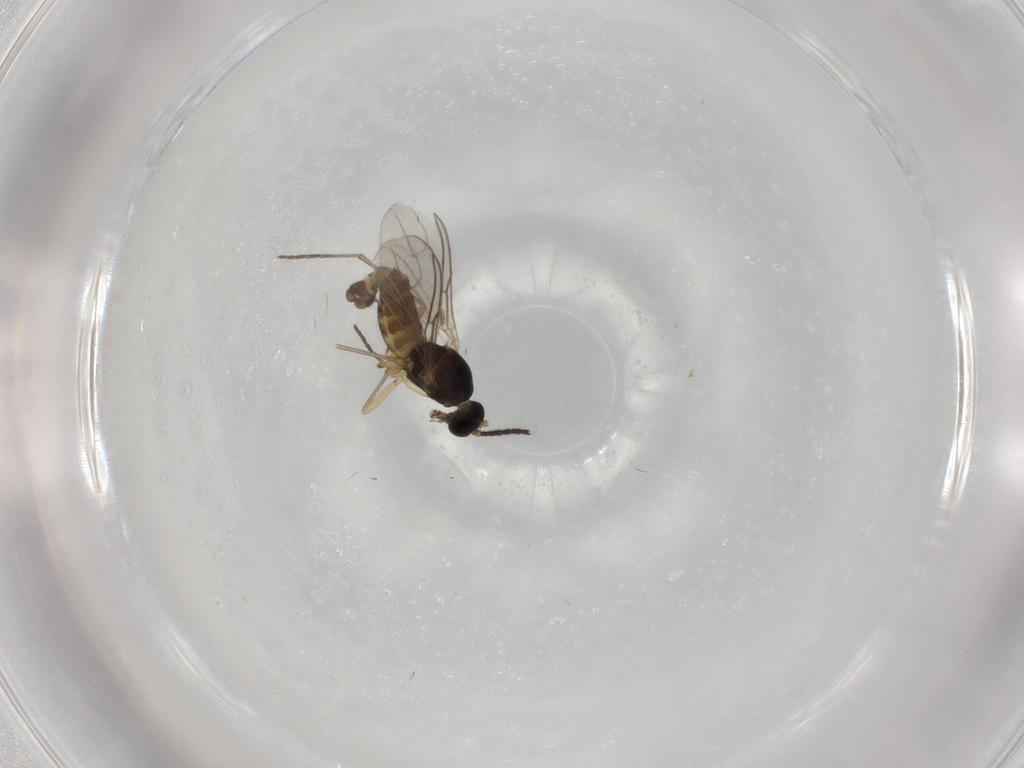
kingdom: Animalia
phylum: Arthropoda
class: Insecta
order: Diptera
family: Sciaridae
